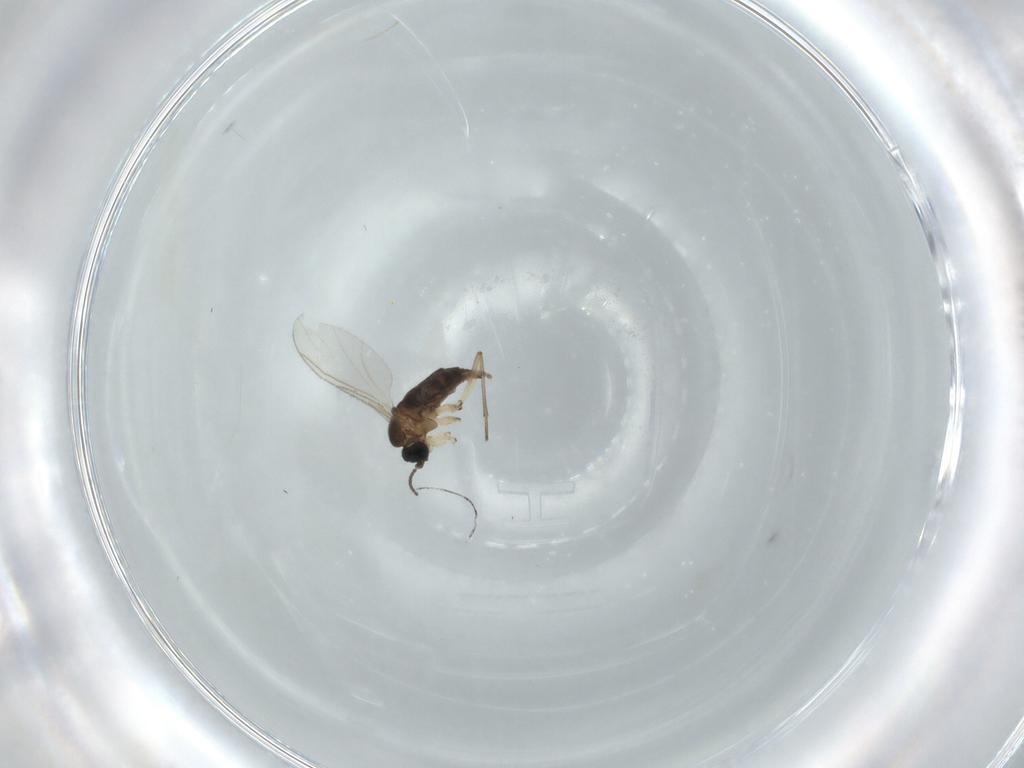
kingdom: Animalia
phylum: Arthropoda
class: Insecta
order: Diptera
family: Sciaridae
